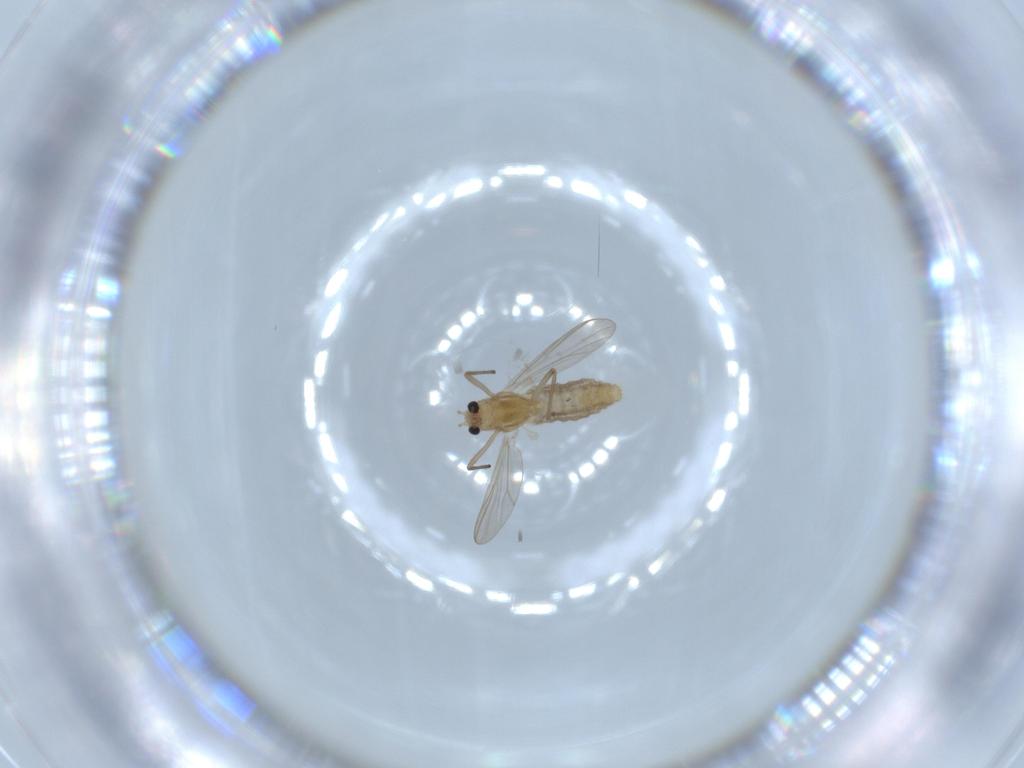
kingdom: Animalia
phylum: Arthropoda
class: Insecta
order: Diptera
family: Chironomidae
